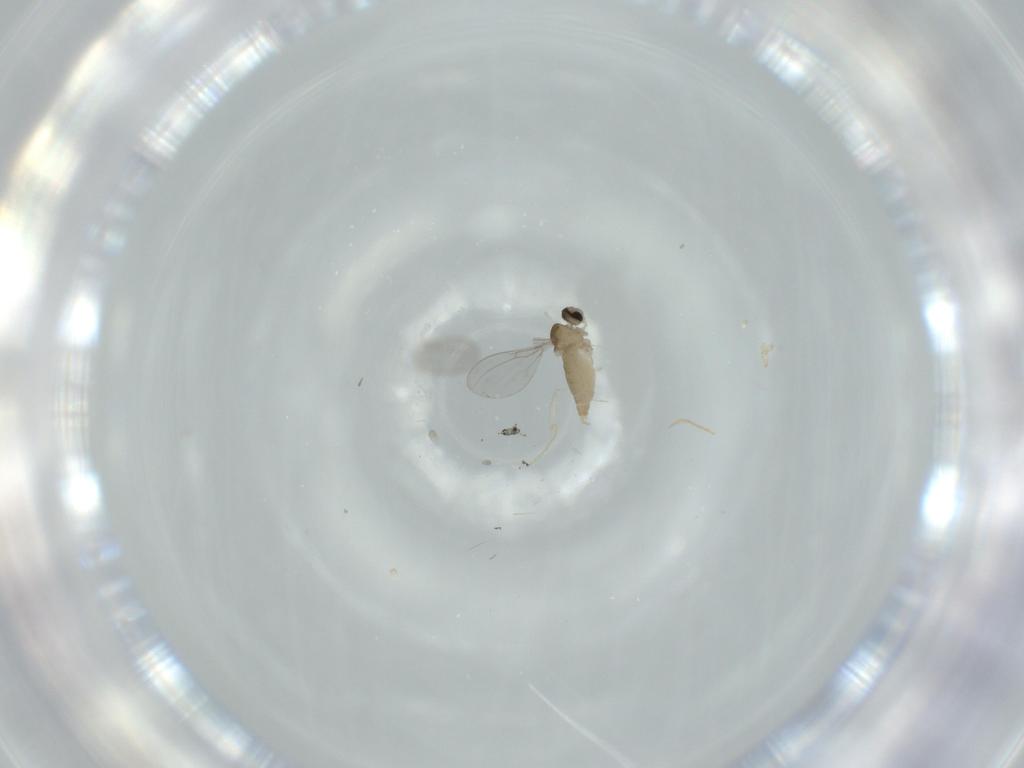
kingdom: Animalia
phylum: Arthropoda
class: Insecta
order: Diptera
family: Cecidomyiidae
